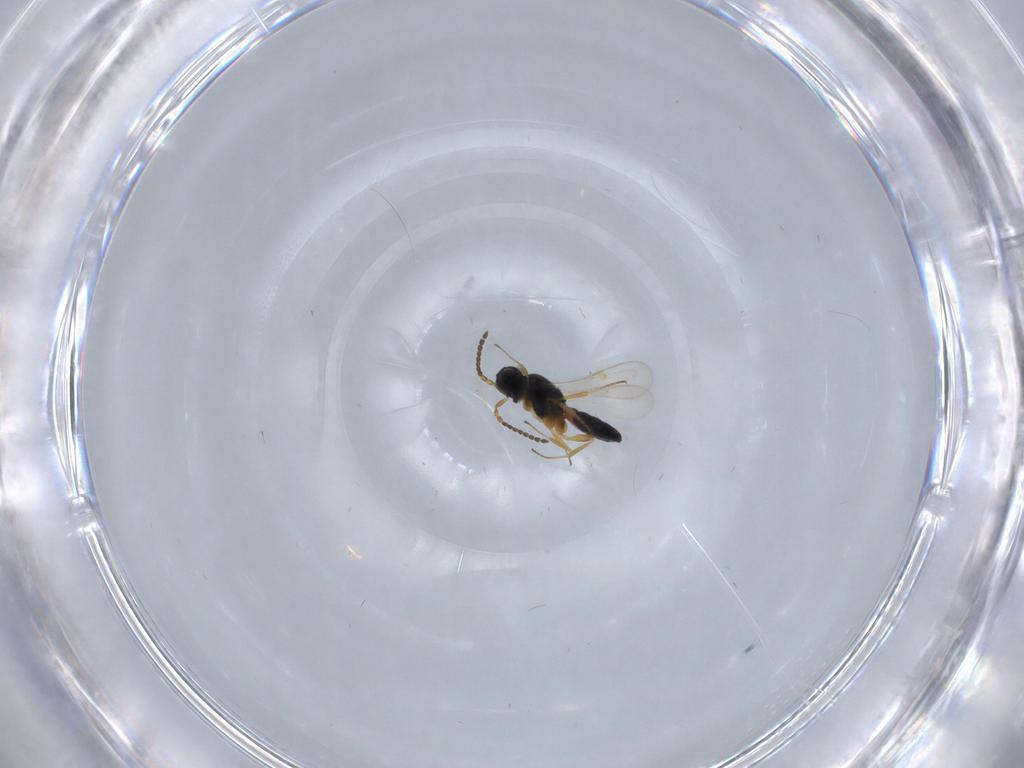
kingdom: Animalia
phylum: Arthropoda
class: Insecta
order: Hymenoptera
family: Scelionidae
